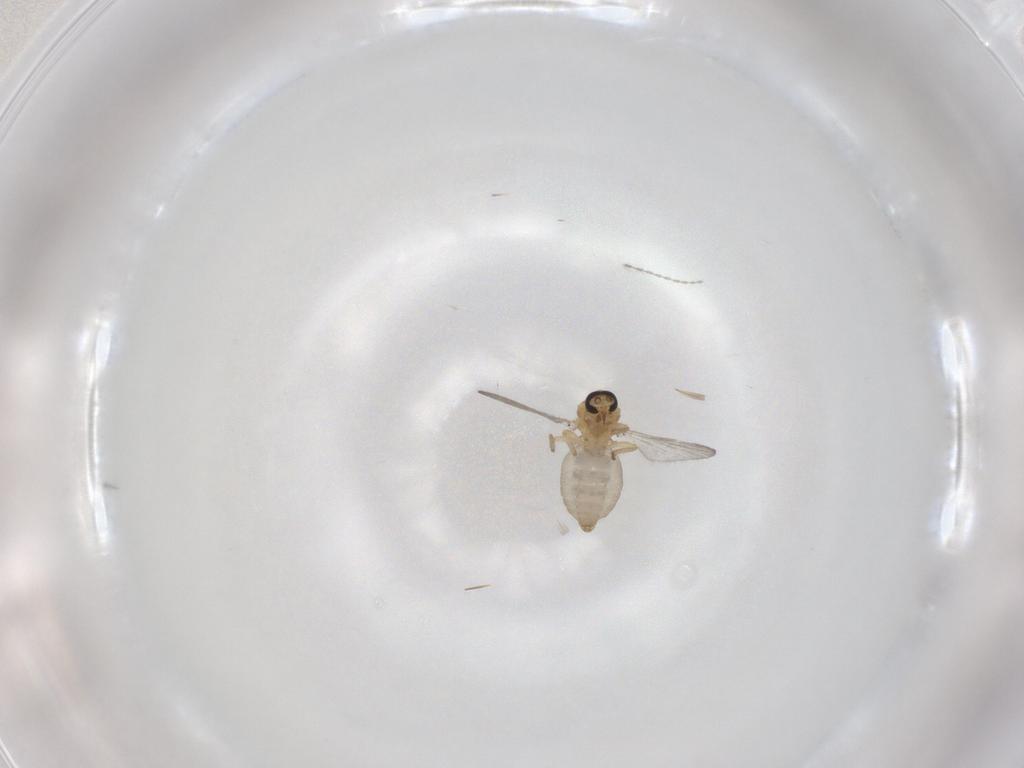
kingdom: Animalia
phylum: Arthropoda
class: Insecta
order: Diptera
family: Ceratopogonidae
